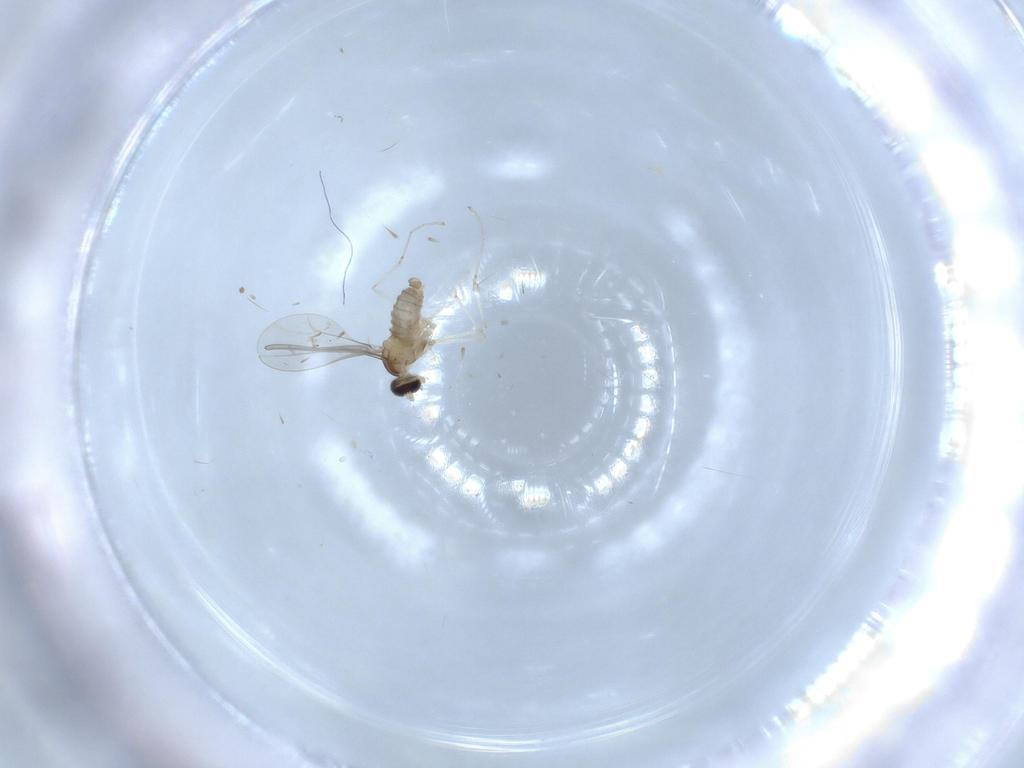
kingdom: Animalia
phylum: Arthropoda
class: Insecta
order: Diptera
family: Cecidomyiidae
